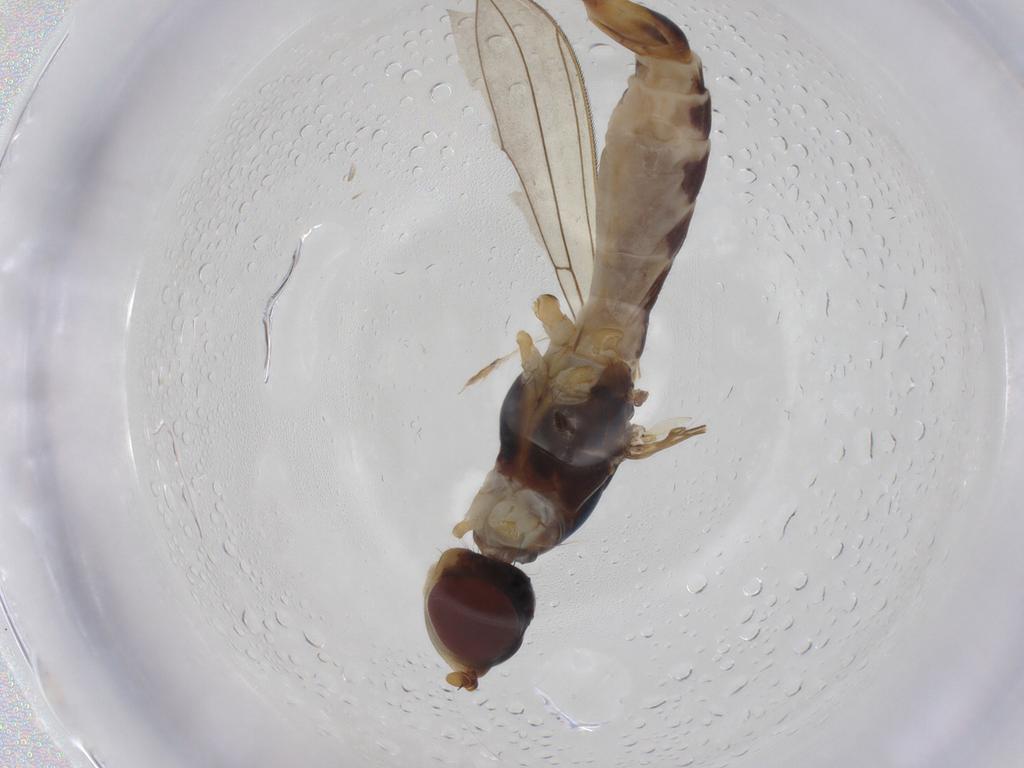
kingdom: Animalia
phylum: Arthropoda
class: Insecta
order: Diptera
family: Micropezidae
